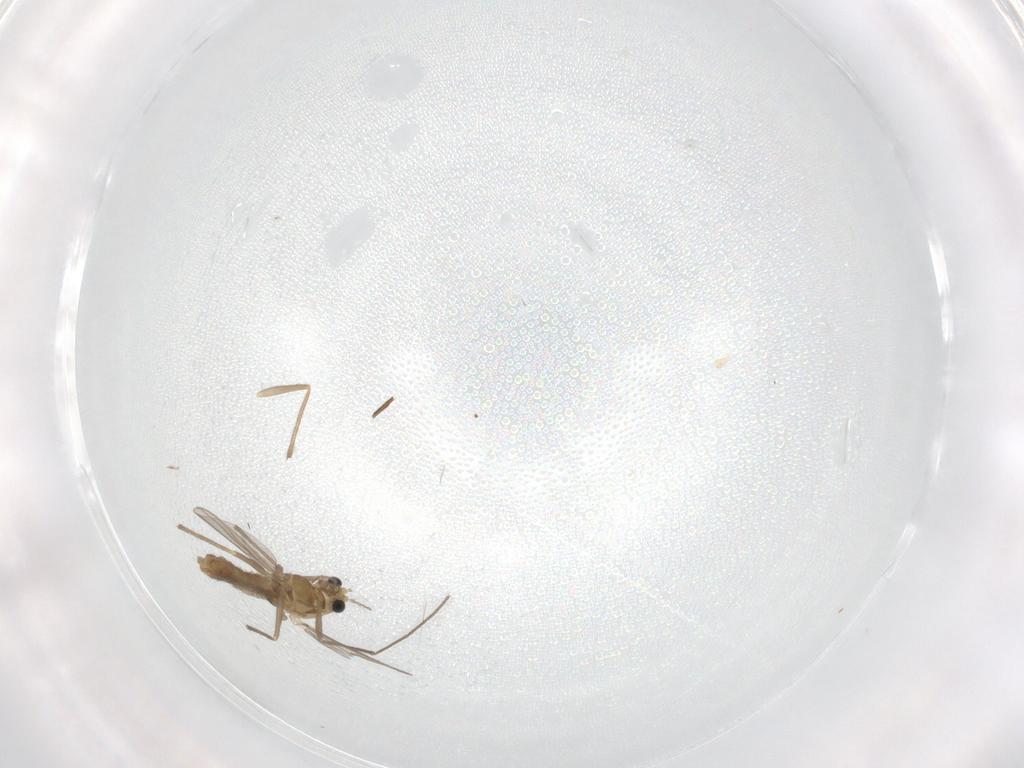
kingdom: Animalia
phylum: Arthropoda
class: Insecta
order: Diptera
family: Chironomidae
